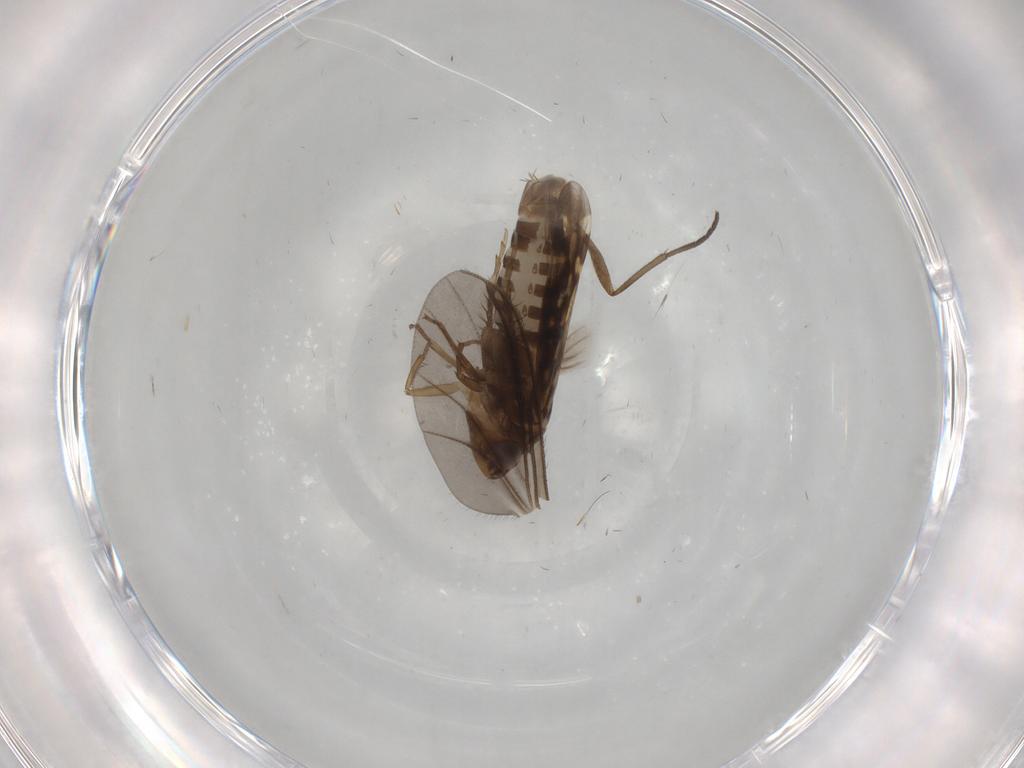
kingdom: Animalia
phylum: Arthropoda
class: Insecta
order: Hemiptera
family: Cicadellidae
